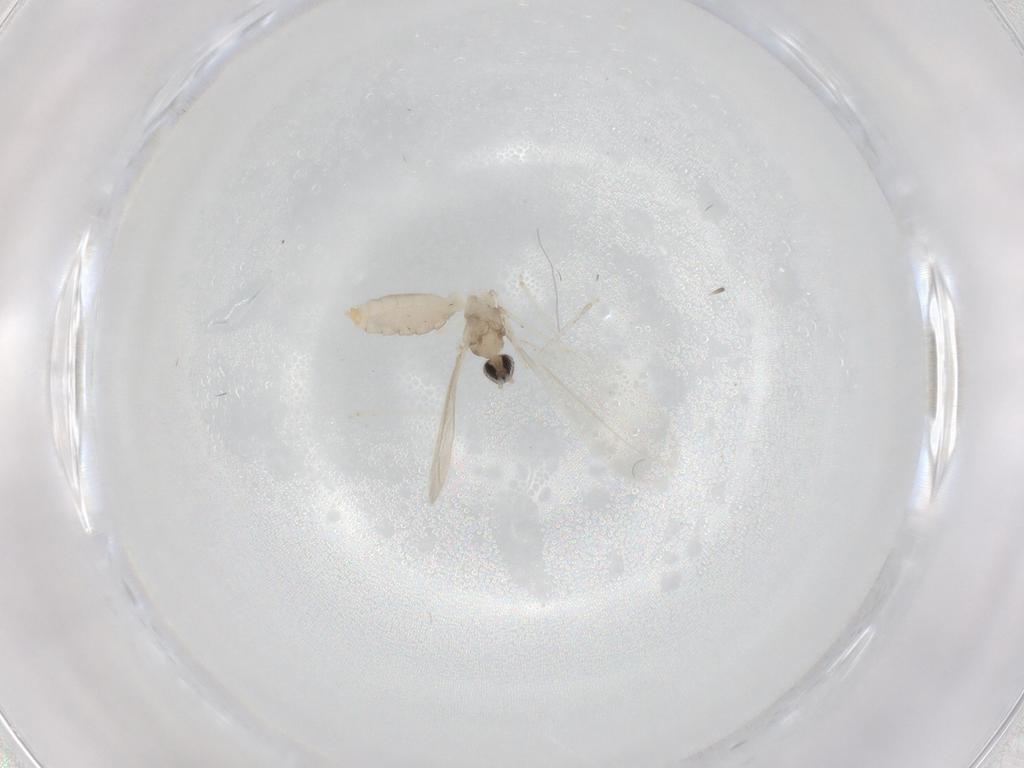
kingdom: Animalia
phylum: Arthropoda
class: Insecta
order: Diptera
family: Cecidomyiidae
